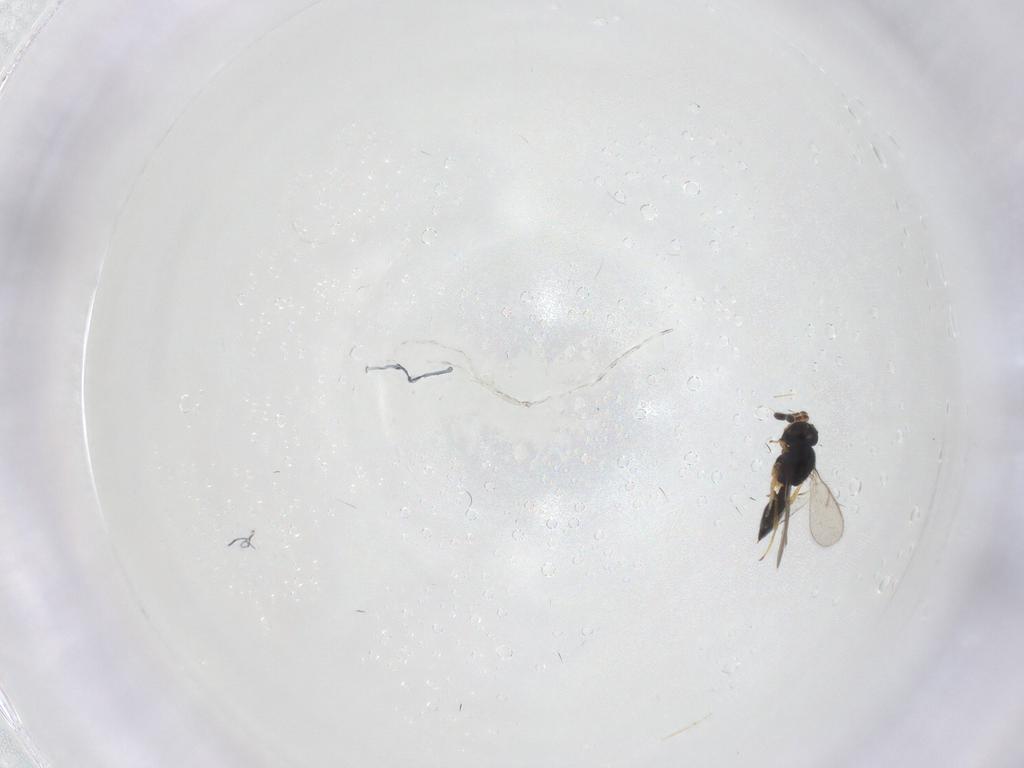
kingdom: Animalia
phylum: Arthropoda
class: Insecta
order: Hymenoptera
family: Scelionidae
